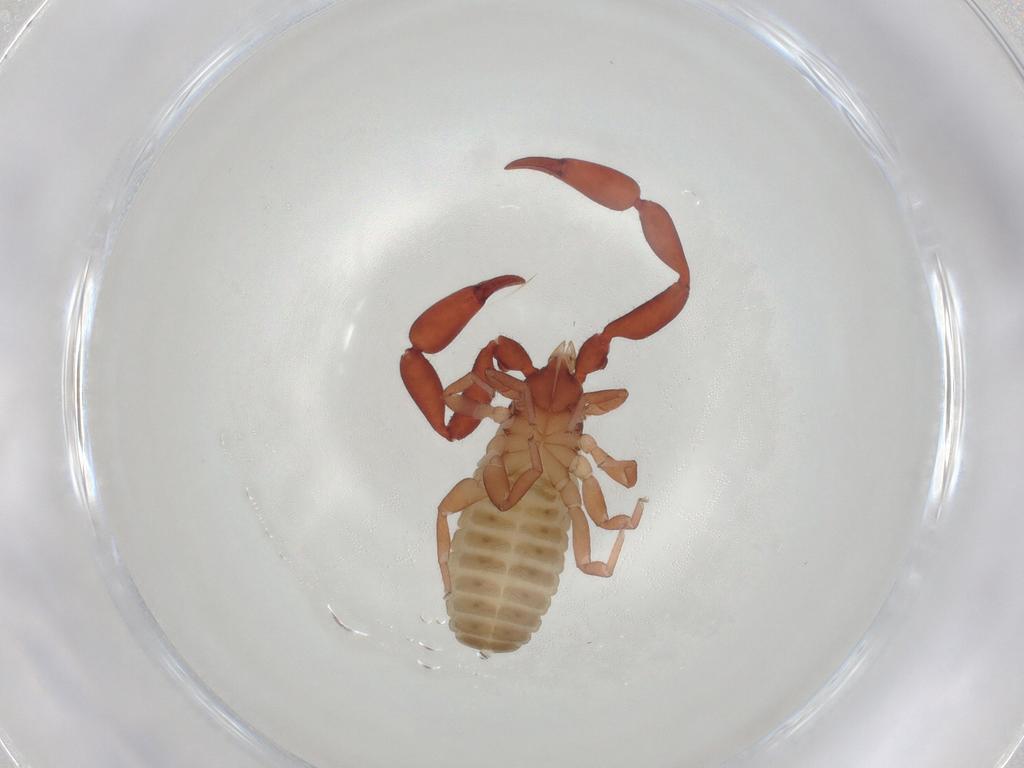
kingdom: Animalia
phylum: Arthropoda
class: Arachnida
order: Pseudoscorpiones
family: Withiidae
